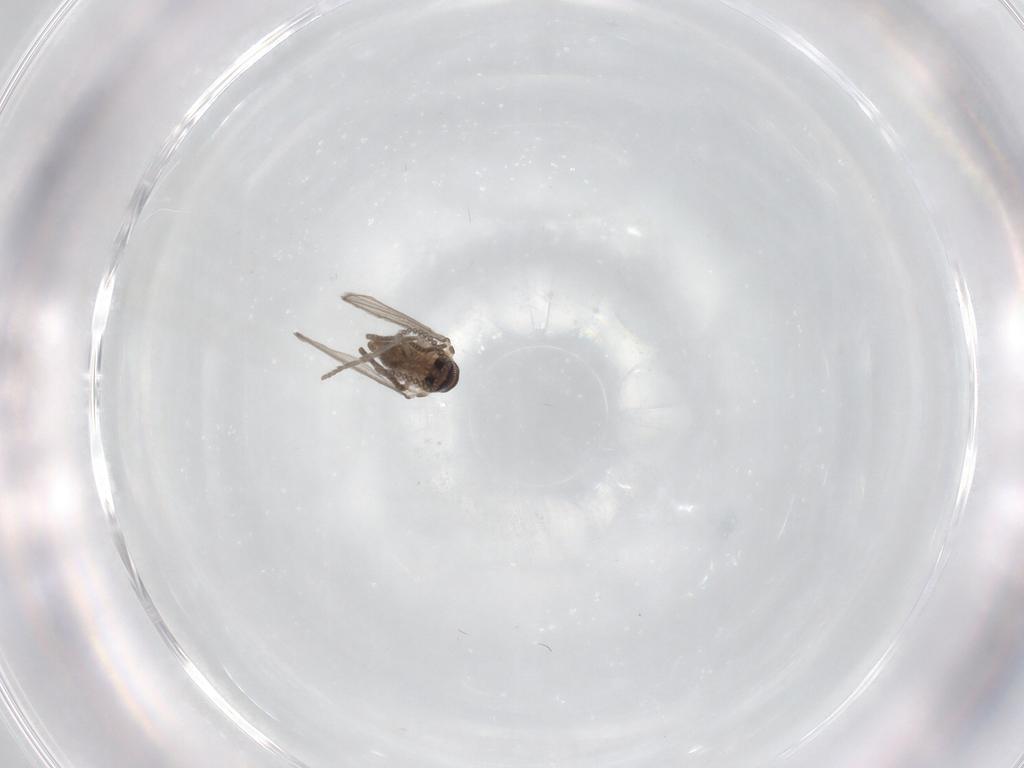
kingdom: Animalia
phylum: Arthropoda
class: Insecta
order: Diptera
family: Psychodidae
